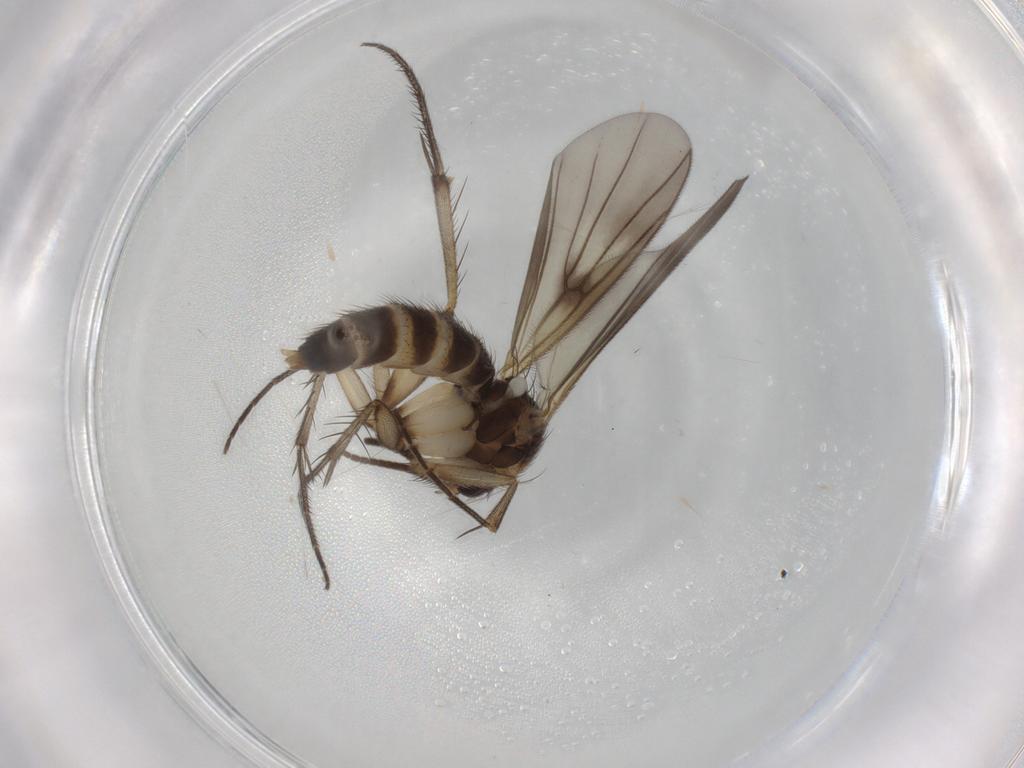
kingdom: Animalia
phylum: Arthropoda
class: Insecta
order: Diptera
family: Mycetophilidae
